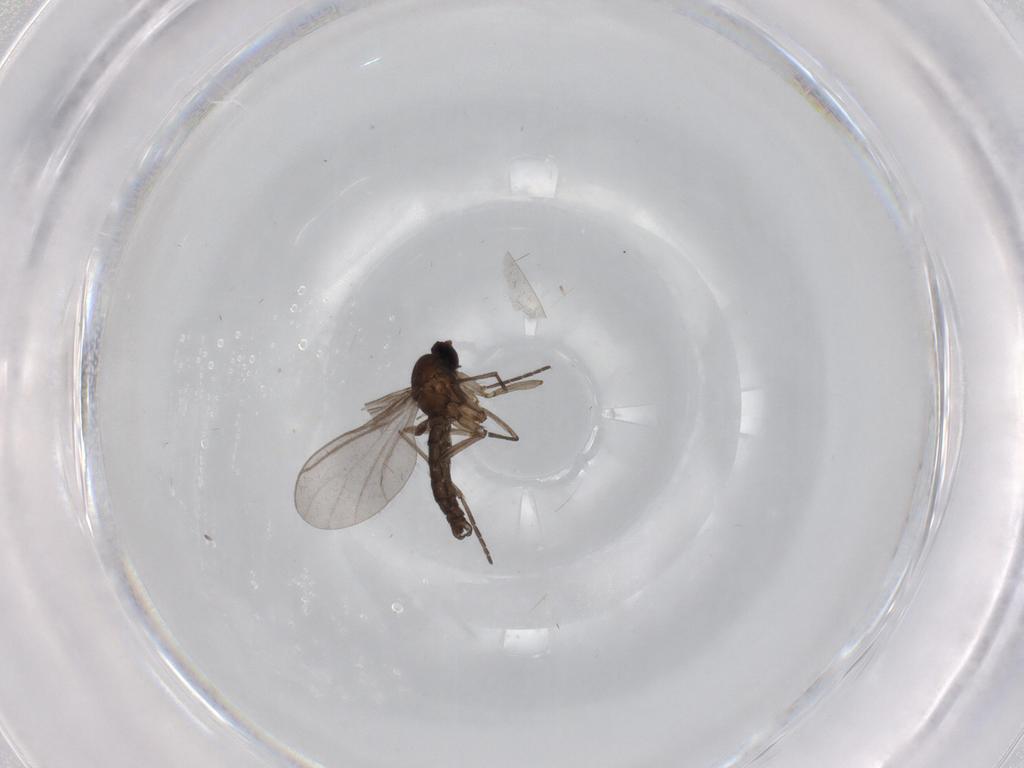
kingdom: Animalia
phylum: Arthropoda
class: Insecta
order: Diptera
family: Sciaridae
